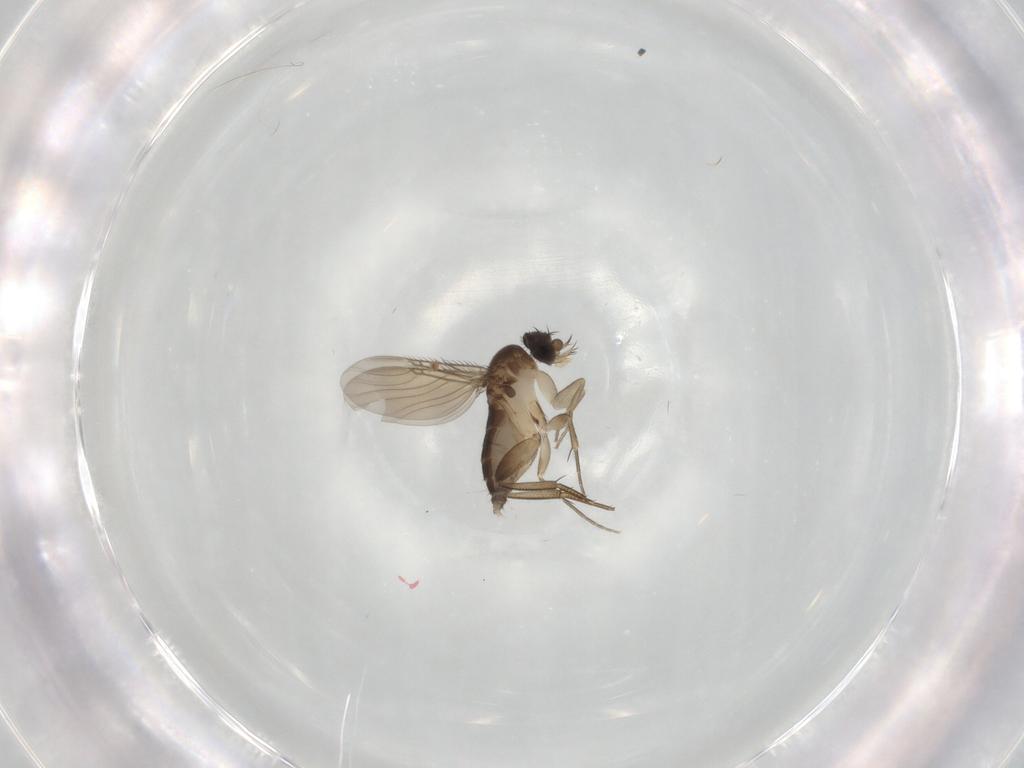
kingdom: Animalia
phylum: Arthropoda
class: Insecta
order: Diptera
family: Phoridae
